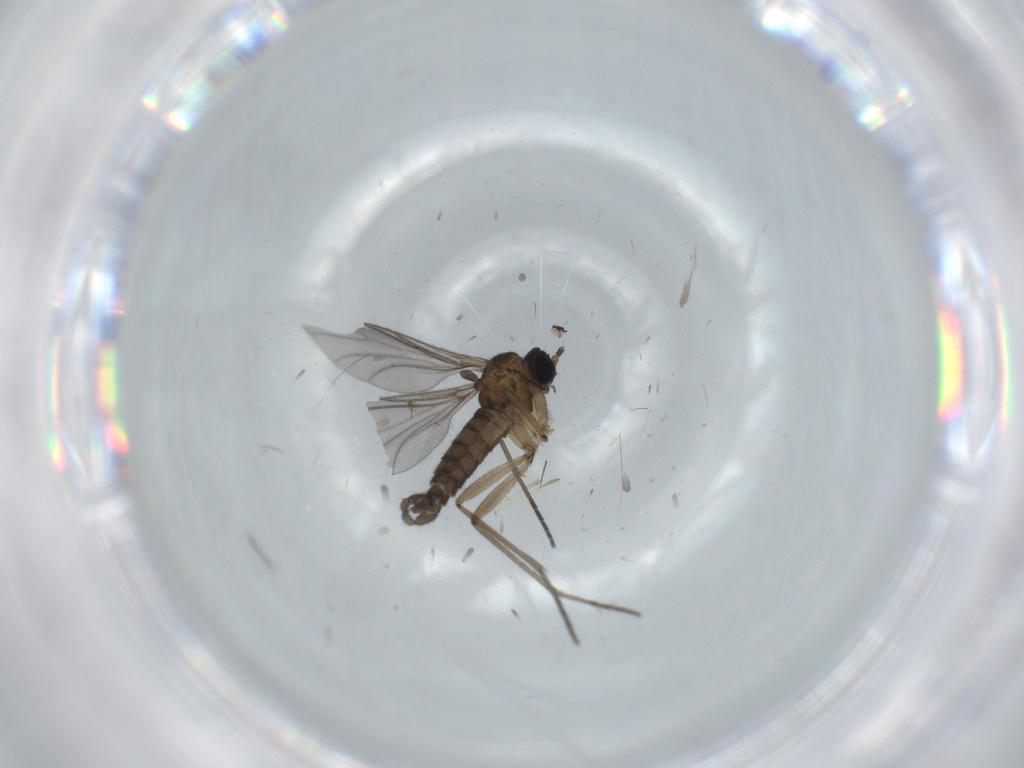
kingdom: Animalia
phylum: Arthropoda
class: Insecta
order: Diptera
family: Chironomidae
